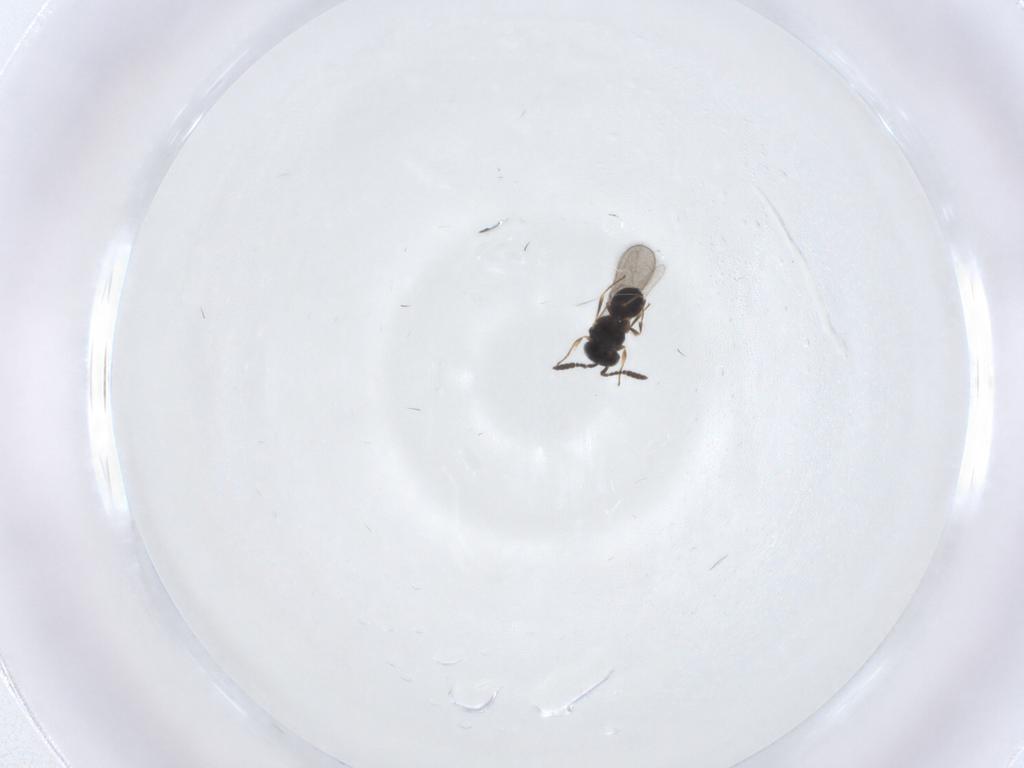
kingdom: Animalia
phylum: Arthropoda
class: Insecta
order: Hymenoptera
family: Scelionidae
